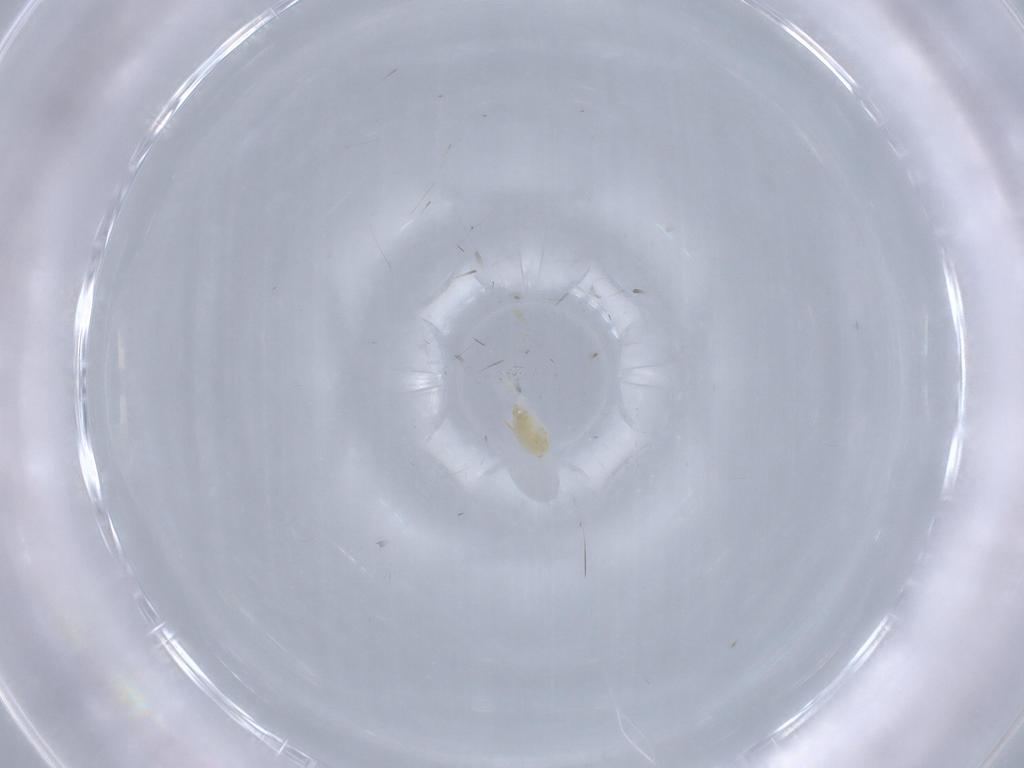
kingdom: Animalia
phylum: Arthropoda
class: Arachnida
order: Trombidiformes
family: Eupodidae
